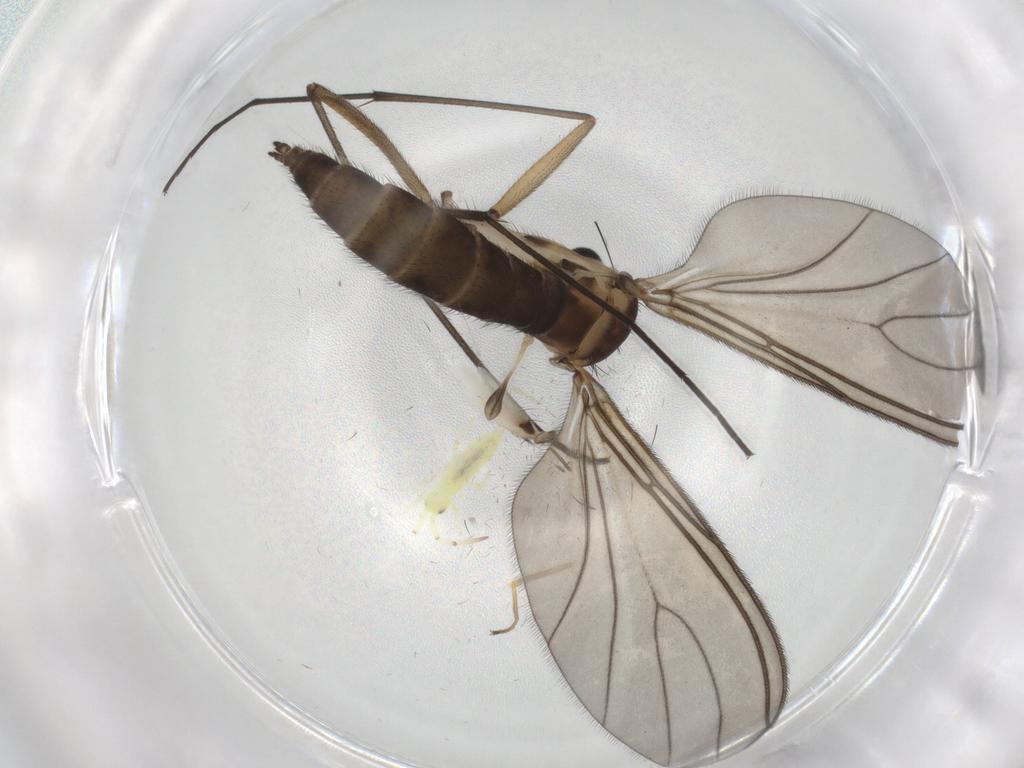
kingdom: Animalia
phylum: Arthropoda
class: Insecta
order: Diptera
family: Sciaridae
